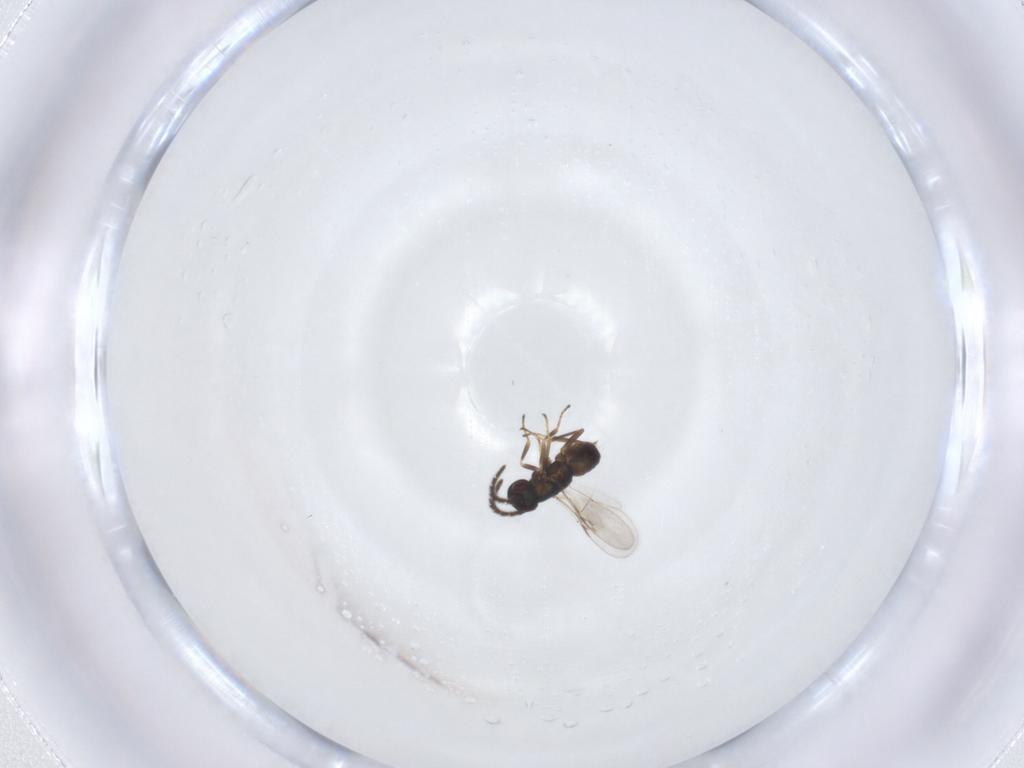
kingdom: Animalia
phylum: Arthropoda
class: Insecta
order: Hymenoptera
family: Encyrtidae
